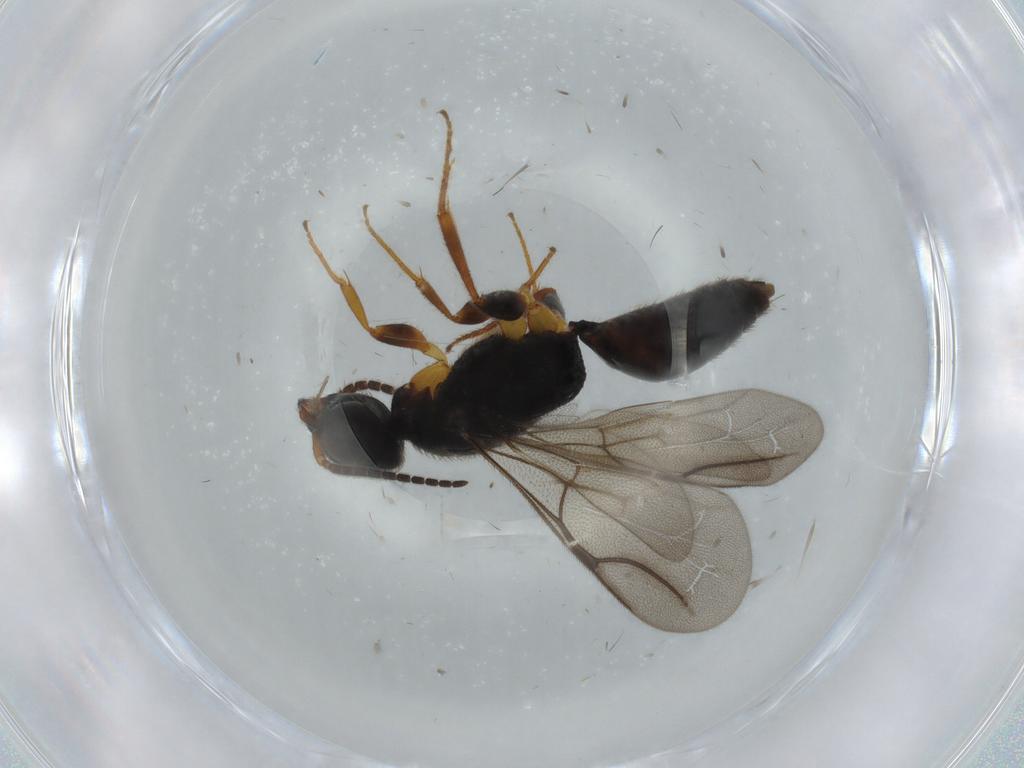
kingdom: Animalia
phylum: Arthropoda
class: Insecta
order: Hymenoptera
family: Bethylidae
